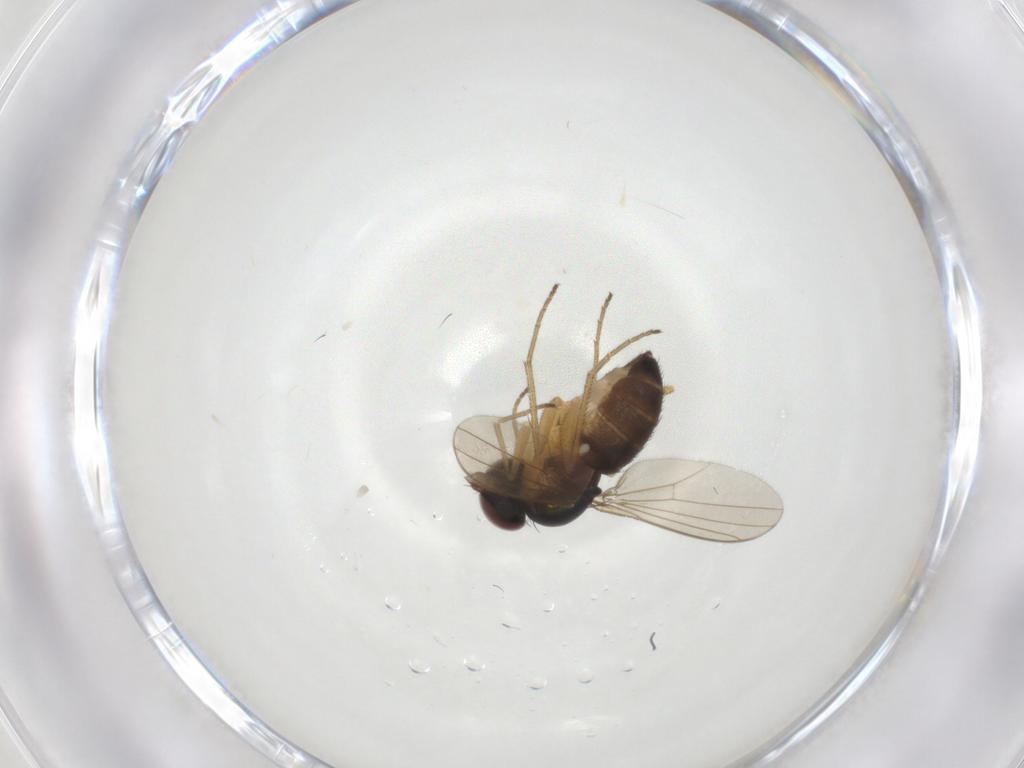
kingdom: Animalia
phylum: Arthropoda
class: Insecta
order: Diptera
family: Dolichopodidae
